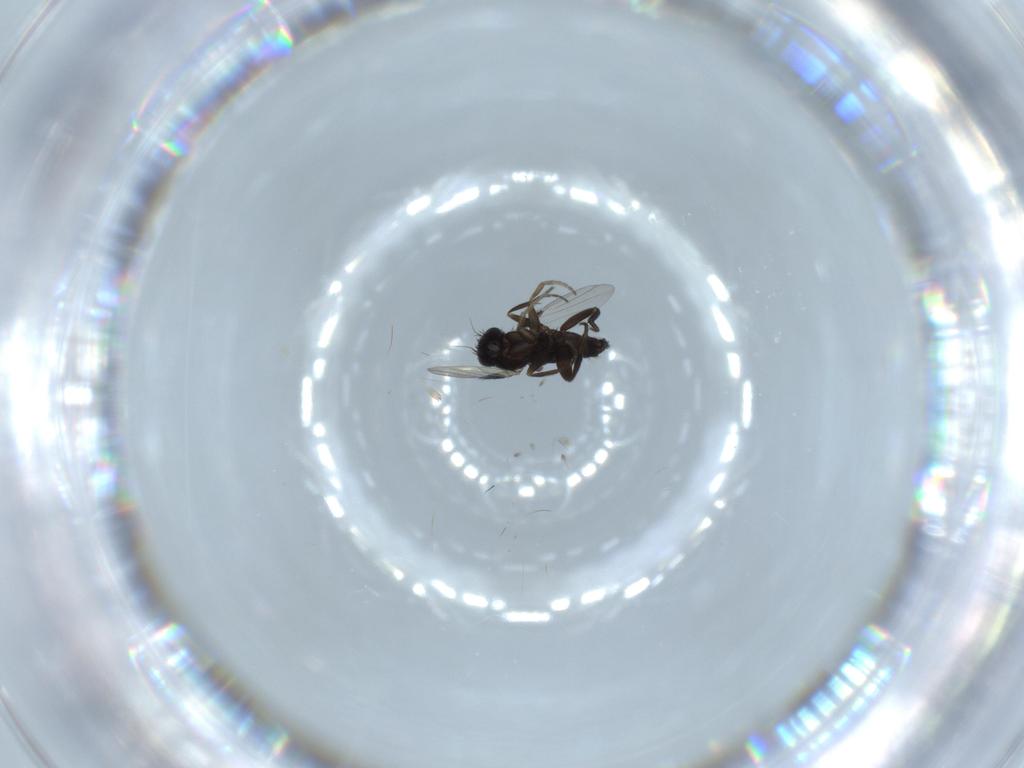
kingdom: Animalia
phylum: Arthropoda
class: Insecta
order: Diptera
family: Phoridae
